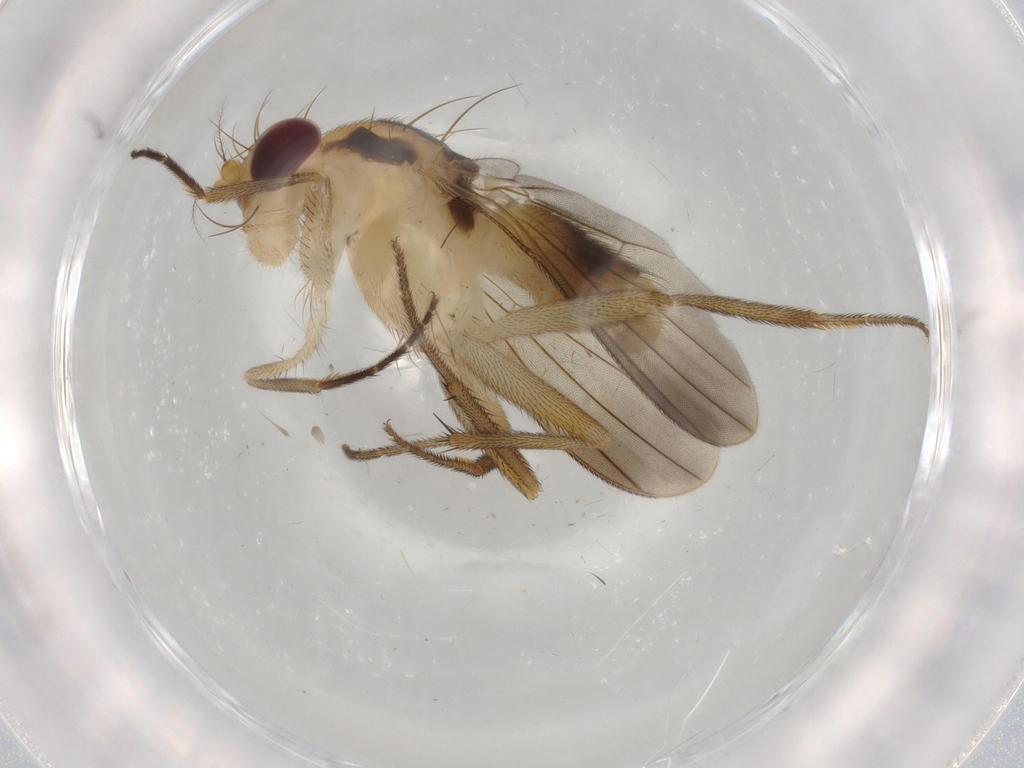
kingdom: Animalia
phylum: Arthropoda
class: Insecta
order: Diptera
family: Clusiidae
